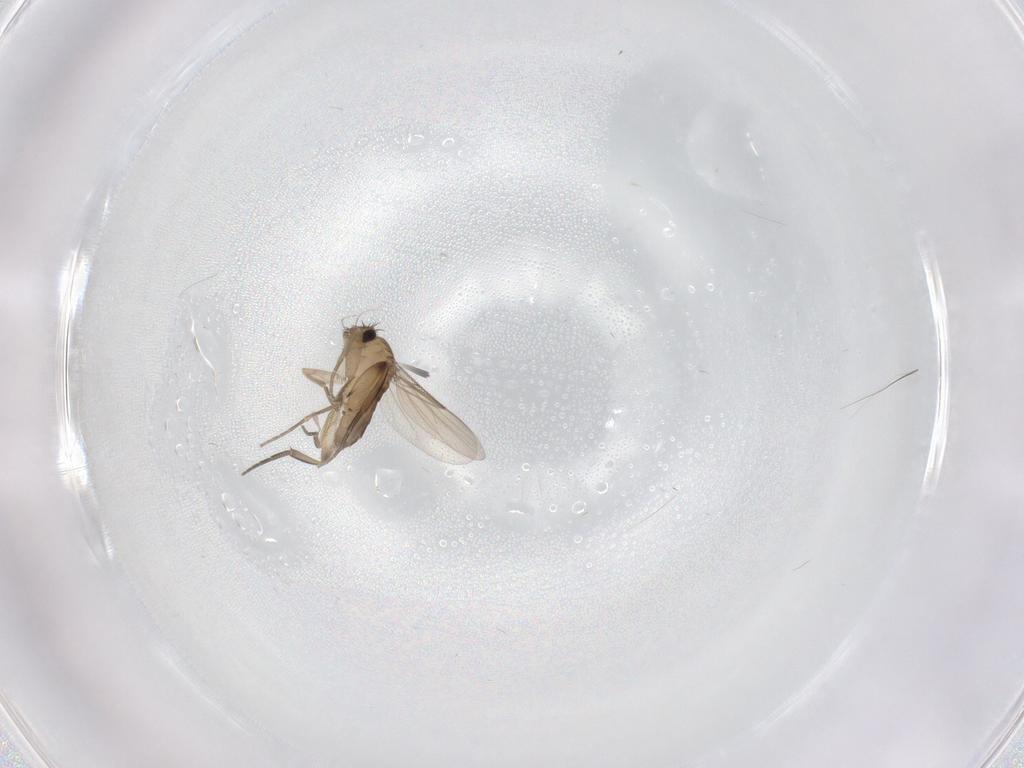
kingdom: Animalia
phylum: Arthropoda
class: Insecta
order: Diptera
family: Phoridae
